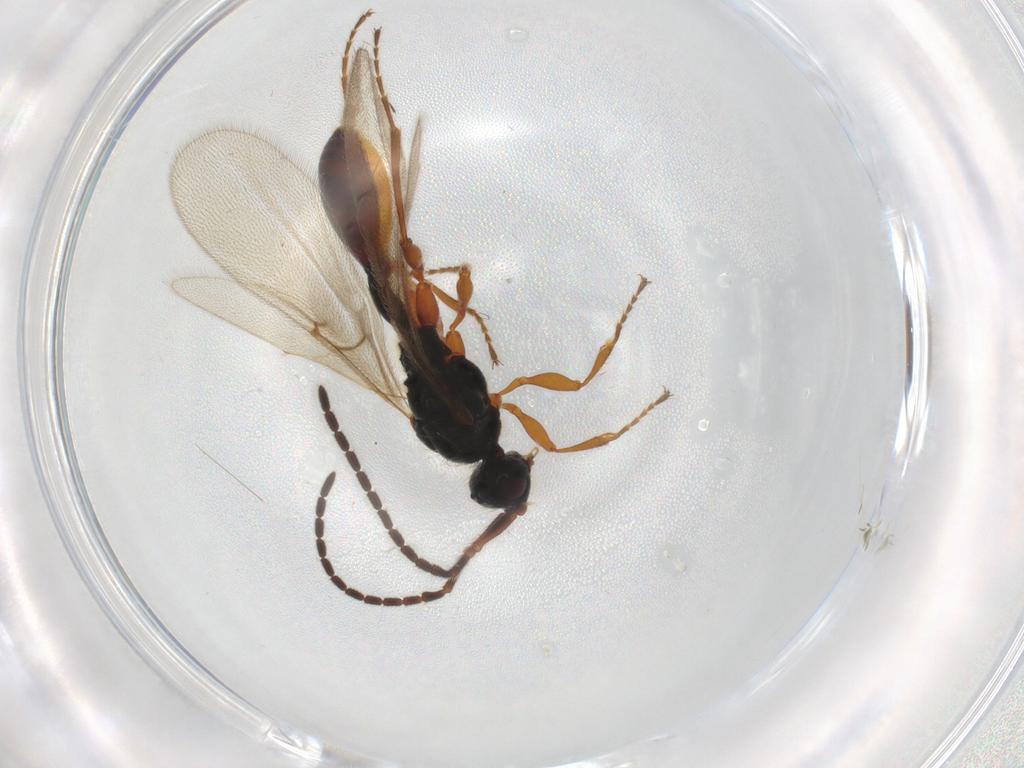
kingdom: Animalia
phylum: Arthropoda
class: Insecta
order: Hymenoptera
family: Diapriidae
